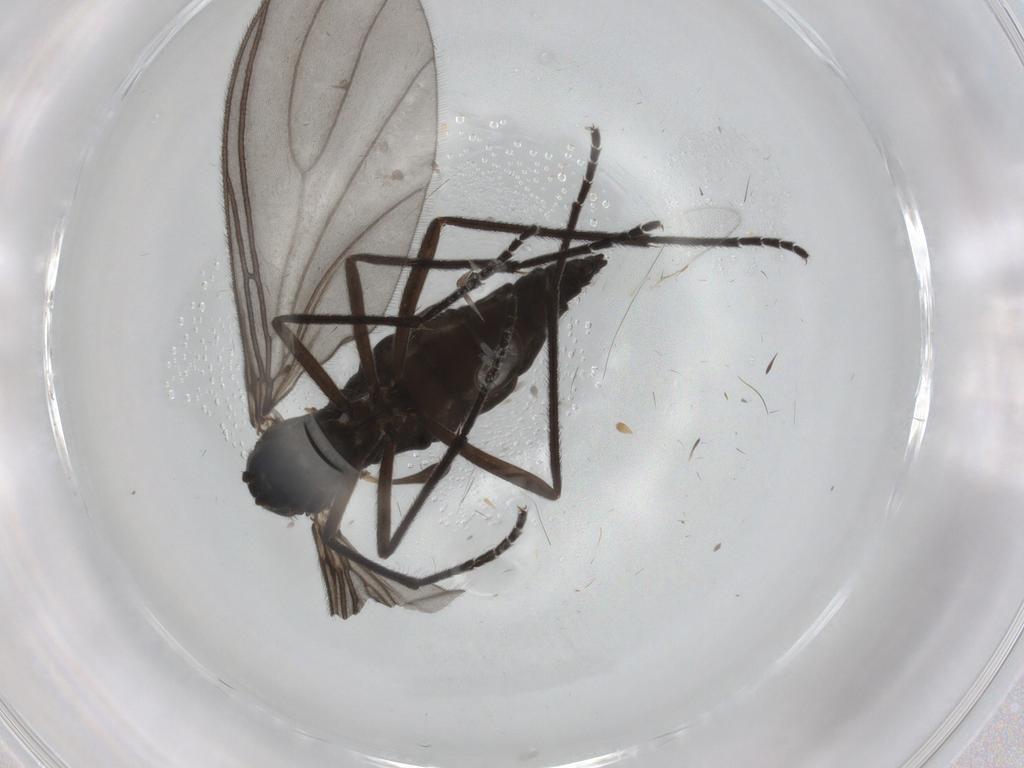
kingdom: Animalia
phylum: Arthropoda
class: Insecta
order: Diptera
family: Sciaridae
